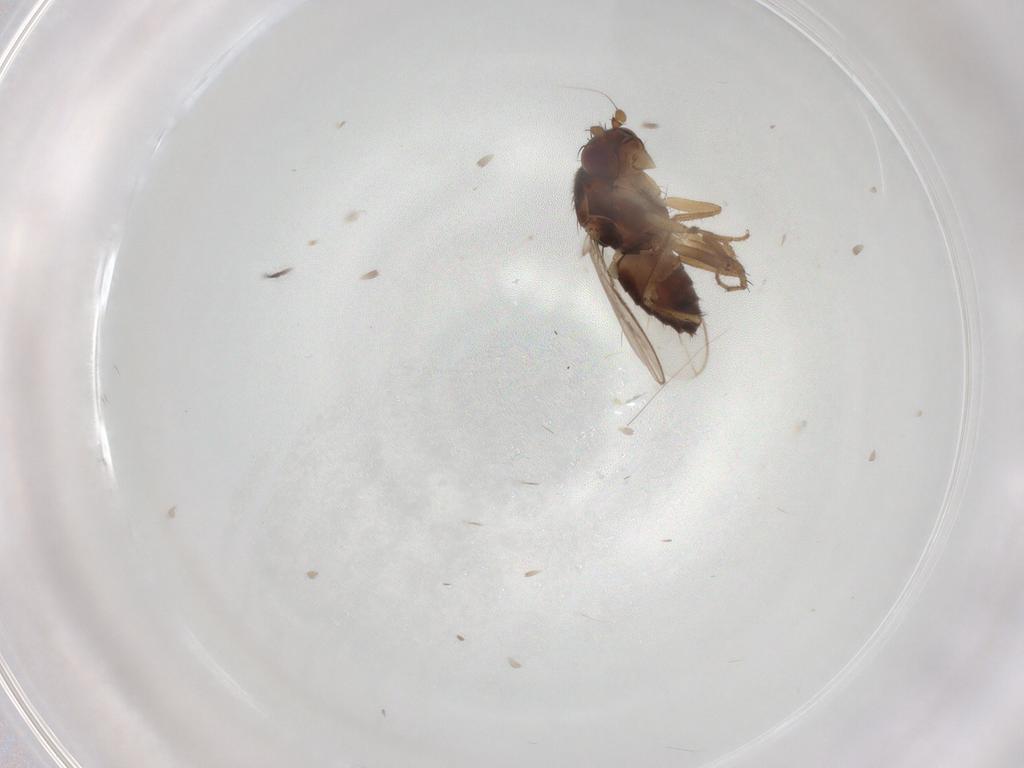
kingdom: Animalia
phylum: Arthropoda
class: Insecta
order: Diptera
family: Sphaeroceridae
